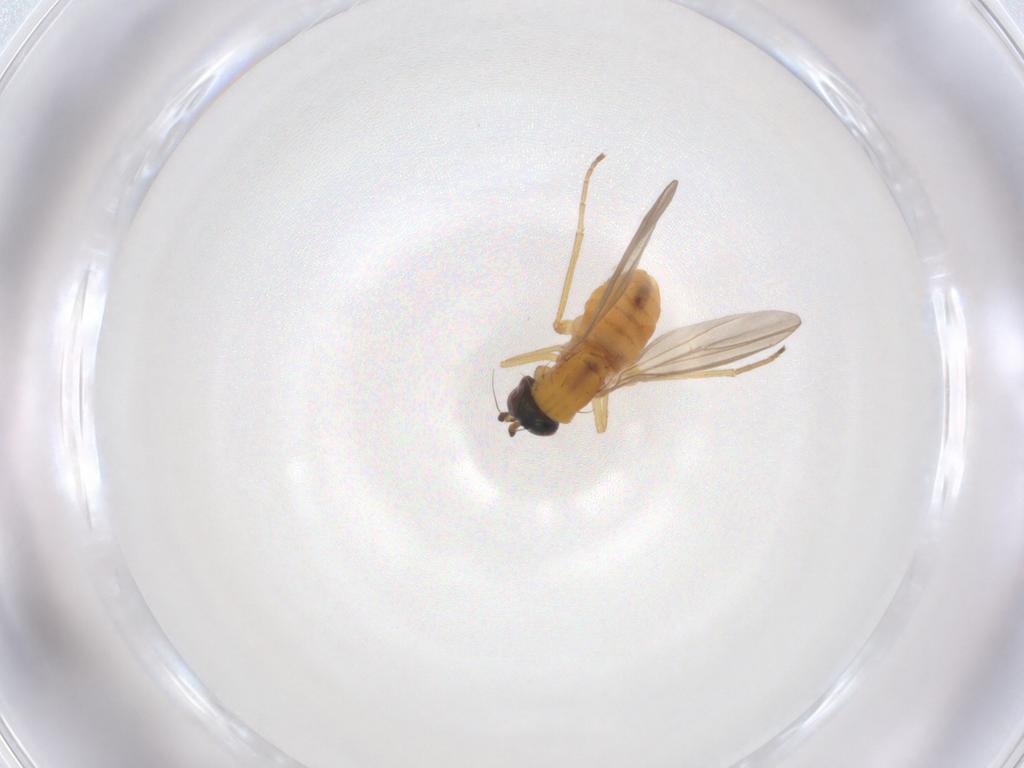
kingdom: Animalia
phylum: Arthropoda
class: Insecta
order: Diptera
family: Dolichopodidae
